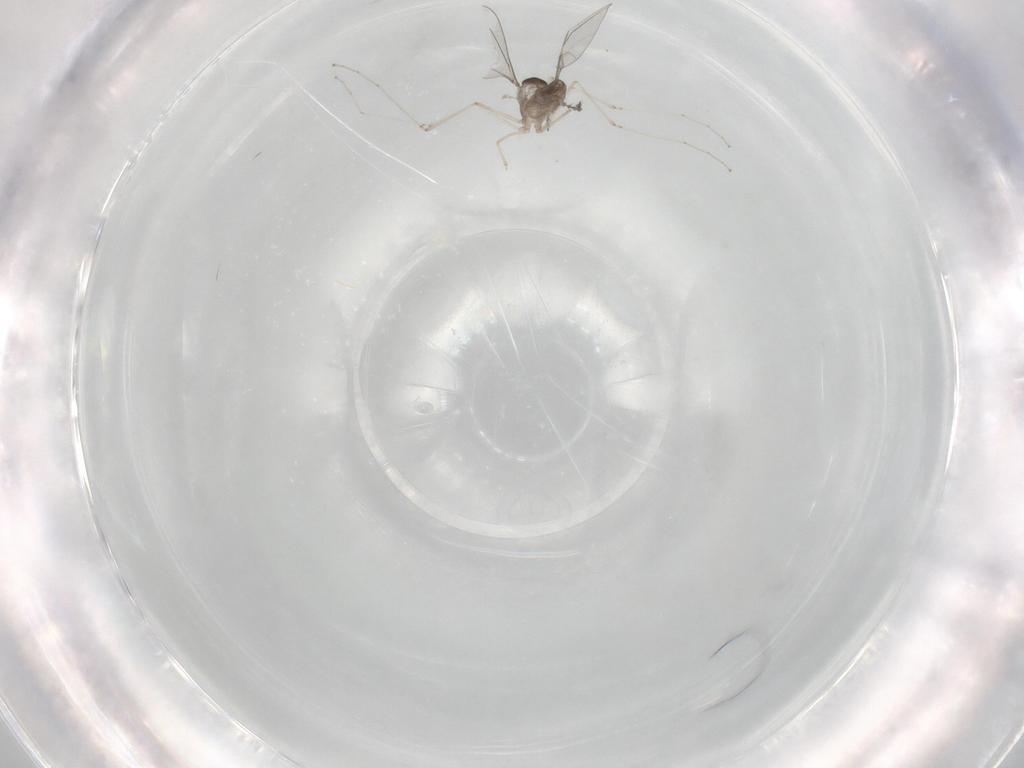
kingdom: Animalia
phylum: Arthropoda
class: Insecta
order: Diptera
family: Cecidomyiidae
